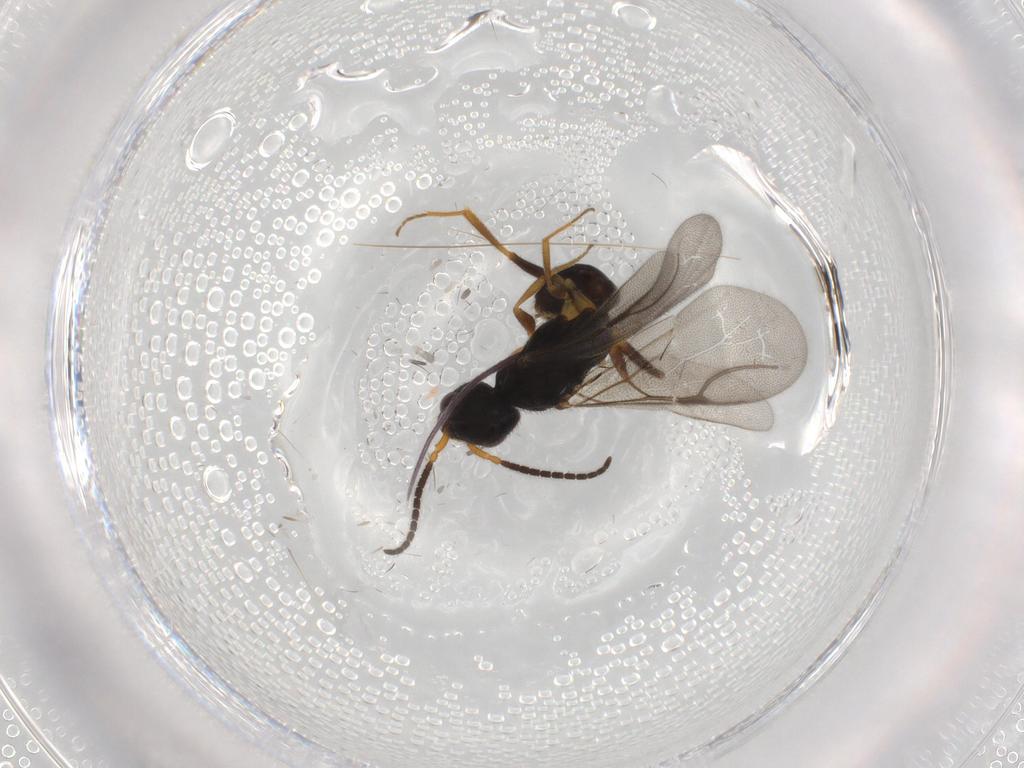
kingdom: Animalia
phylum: Arthropoda
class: Insecta
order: Hymenoptera
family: Bethylidae
